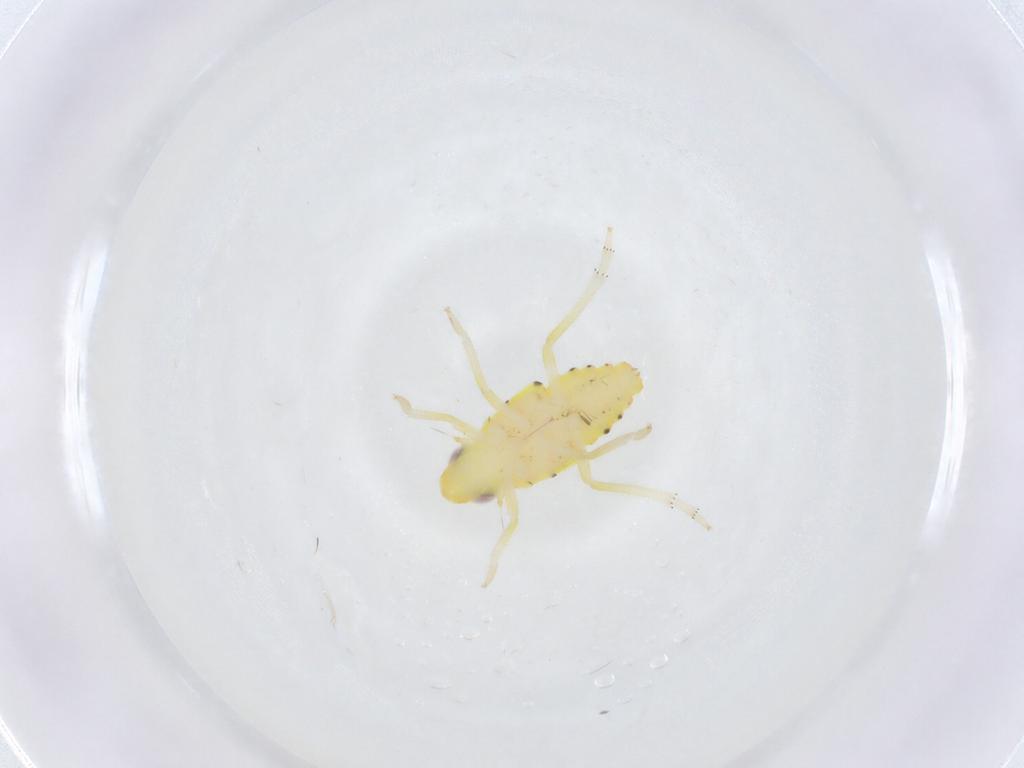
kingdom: Animalia
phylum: Arthropoda
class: Insecta
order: Hemiptera
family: Tropiduchidae
